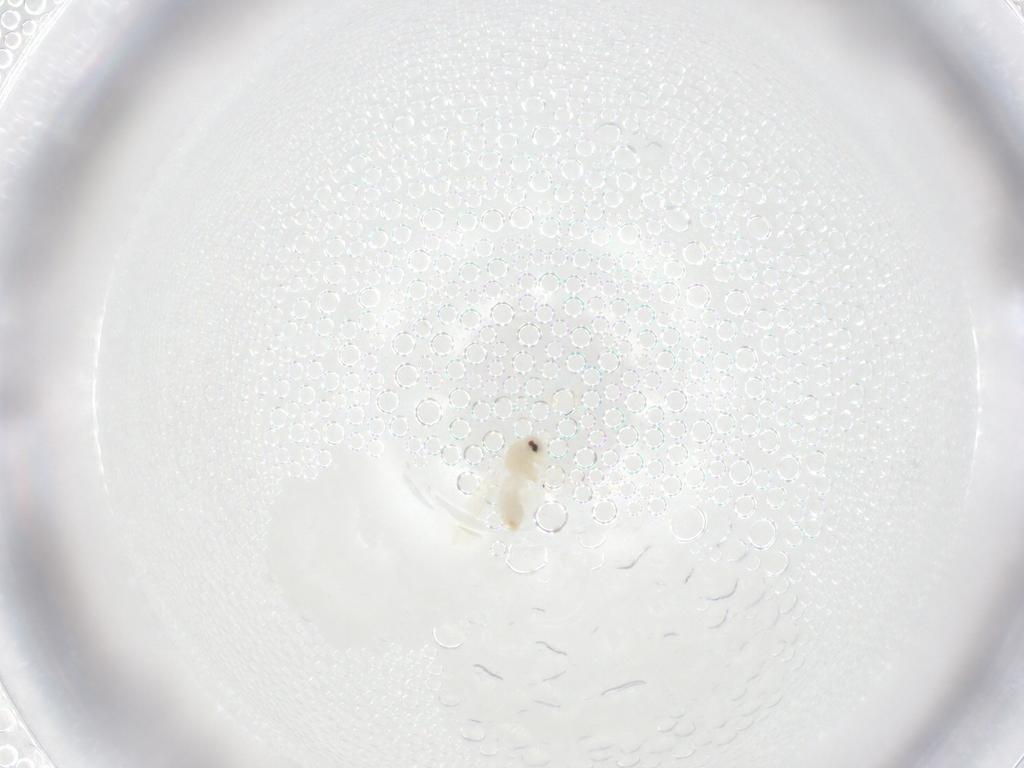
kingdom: Animalia
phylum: Arthropoda
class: Insecta
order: Hemiptera
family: Aleyrodidae
